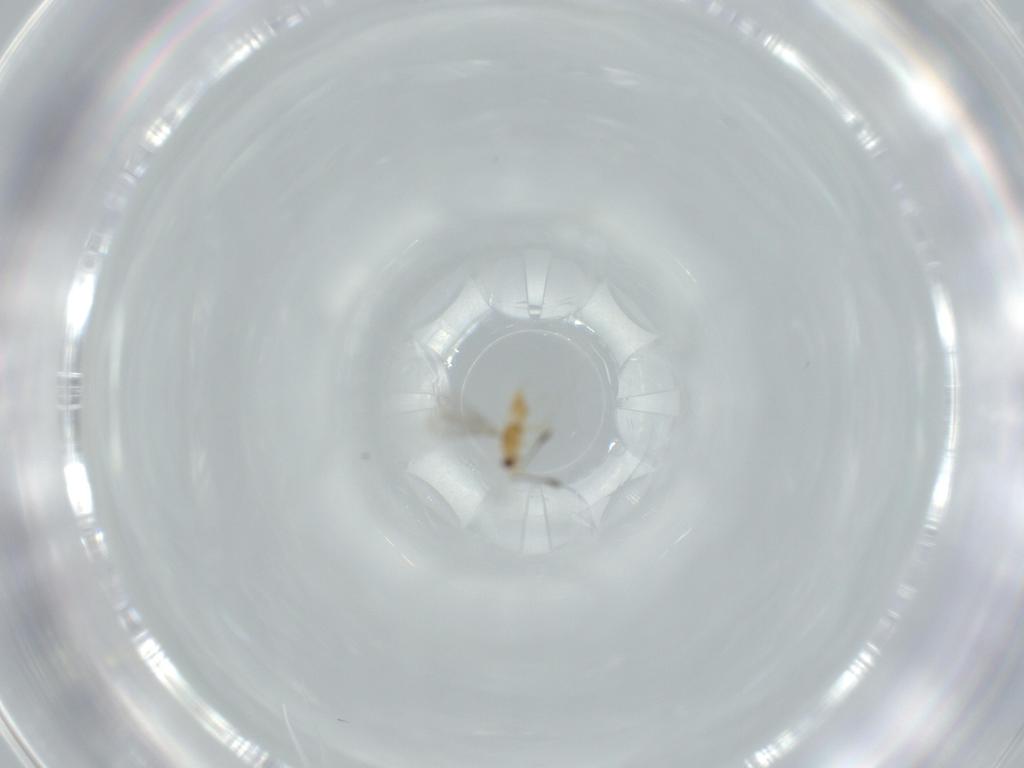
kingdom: Animalia
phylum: Arthropoda
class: Insecta
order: Hymenoptera
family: Mymaridae
